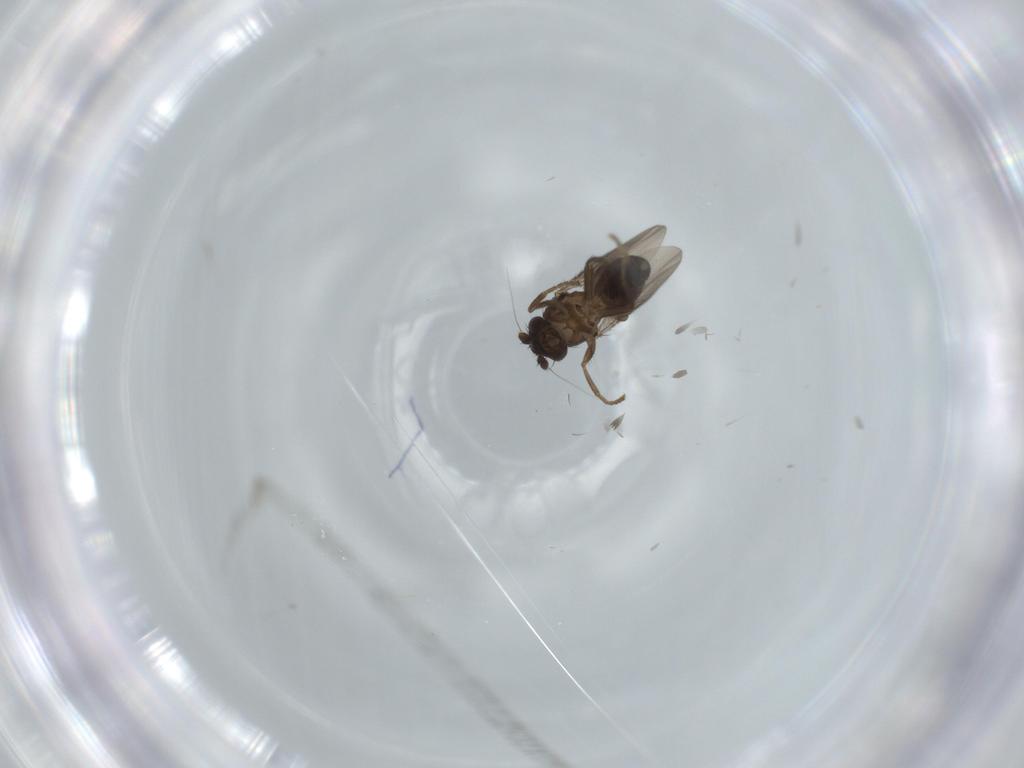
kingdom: Animalia
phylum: Arthropoda
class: Insecta
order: Diptera
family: Sphaeroceridae
